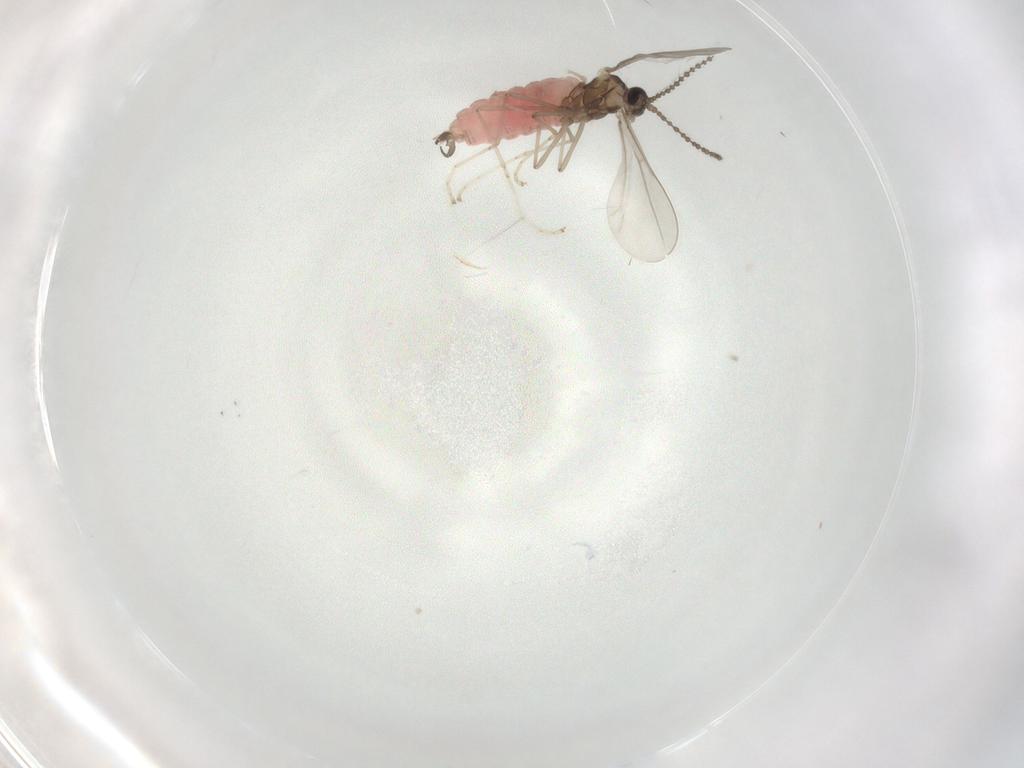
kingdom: Animalia
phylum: Arthropoda
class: Insecta
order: Diptera
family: Cecidomyiidae
